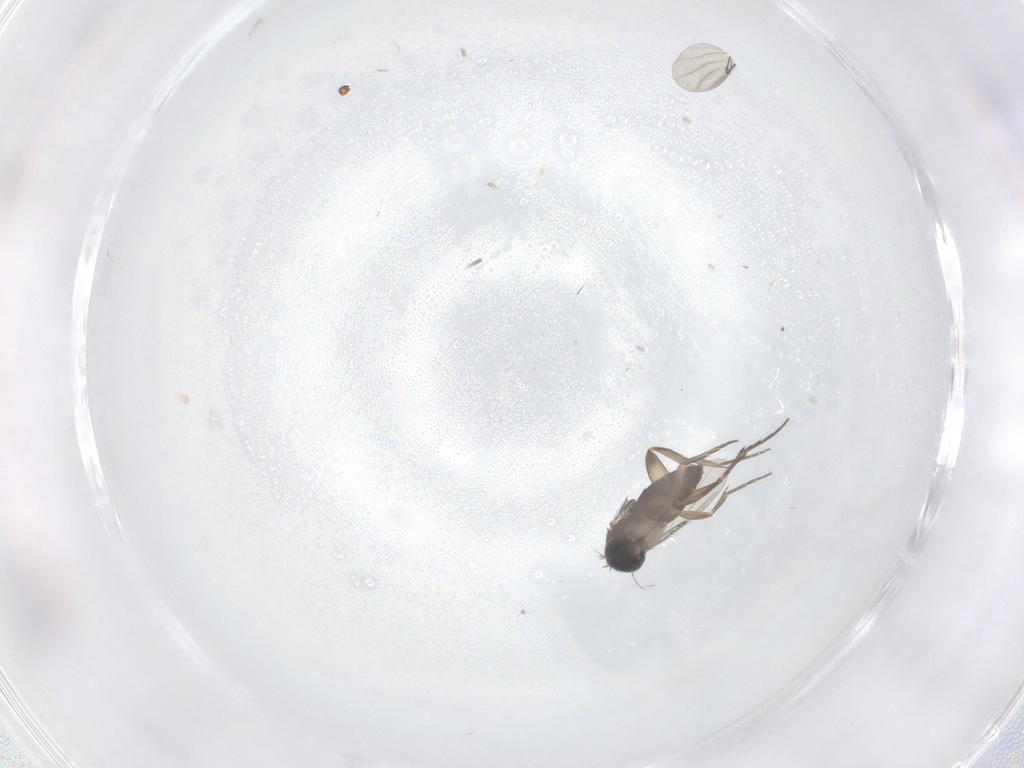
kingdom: Animalia
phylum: Arthropoda
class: Insecta
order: Diptera
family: Phoridae
